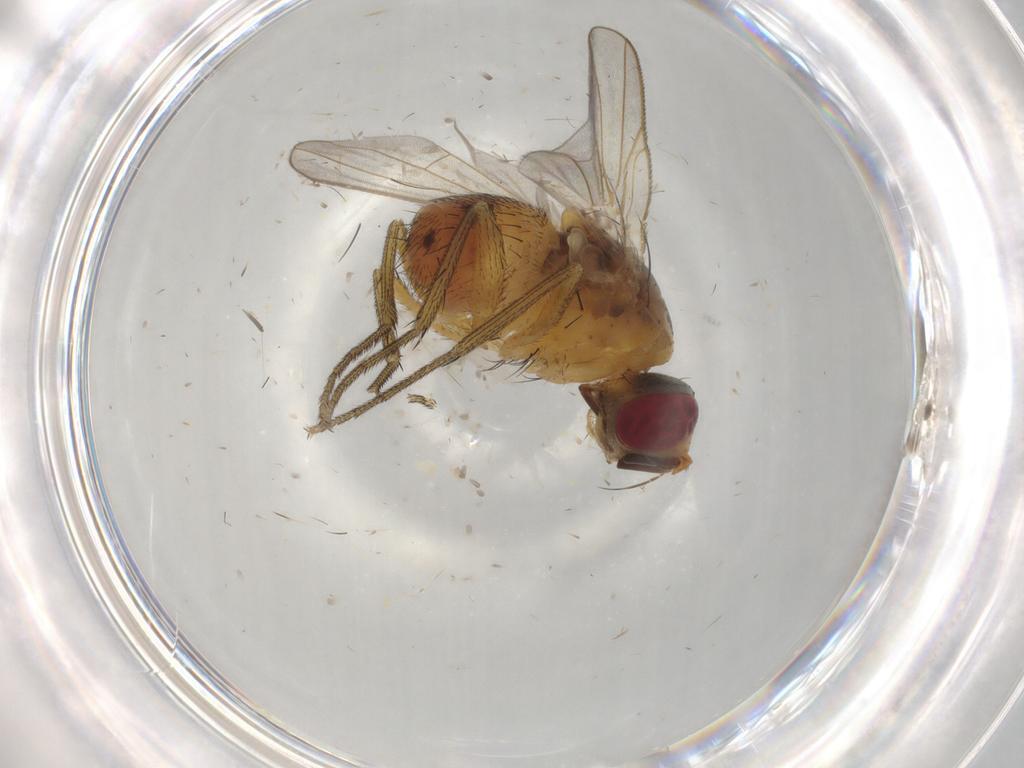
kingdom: Animalia
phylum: Arthropoda
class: Insecta
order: Diptera
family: Muscidae
